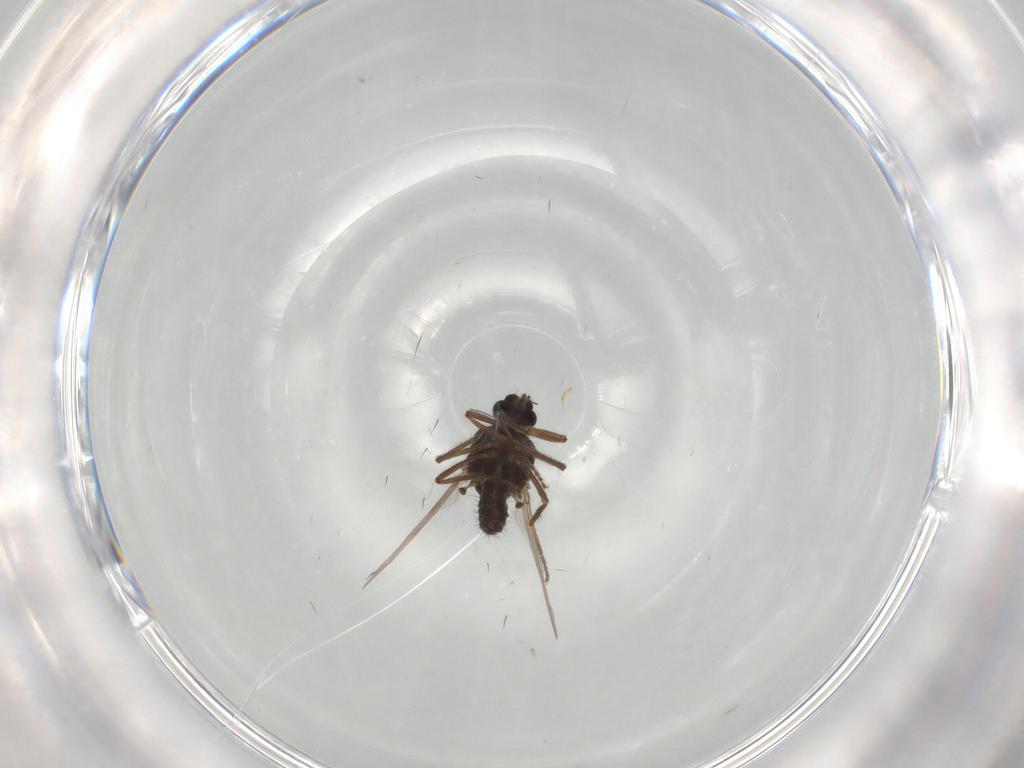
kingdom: Animalia
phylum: Arthropoda
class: Insecta
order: Diptera
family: Ceratopogonidae
